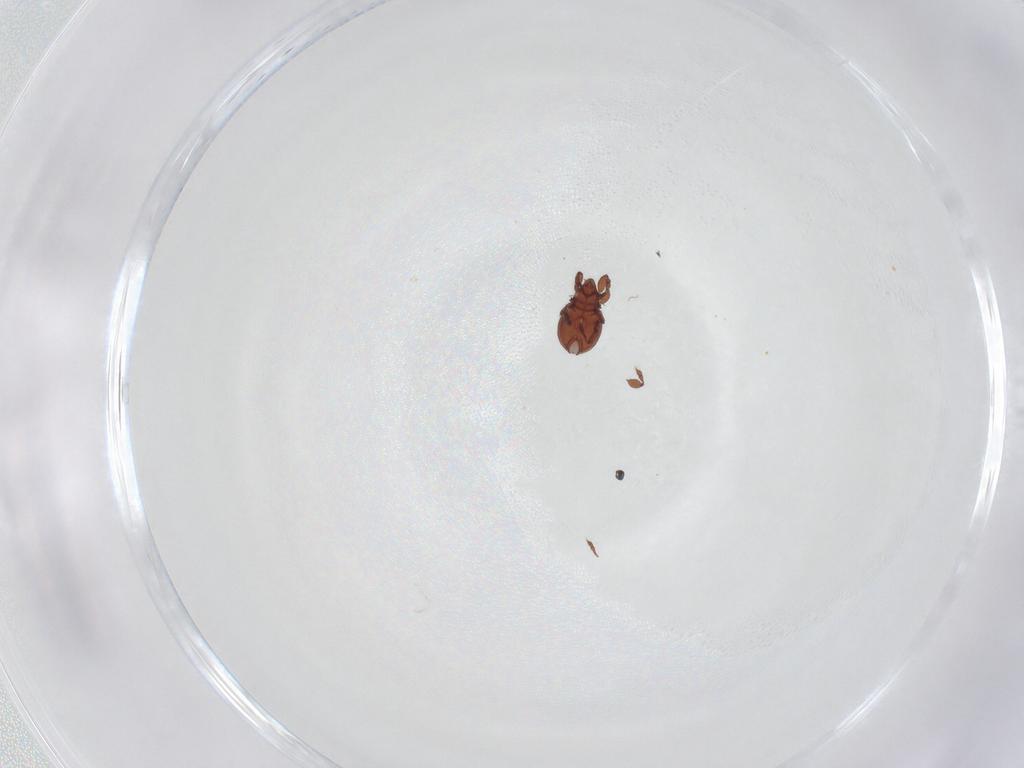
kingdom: Animalia
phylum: Arthropoda
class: Arachnida
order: Sarcoptiformes
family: Eremaeidae
